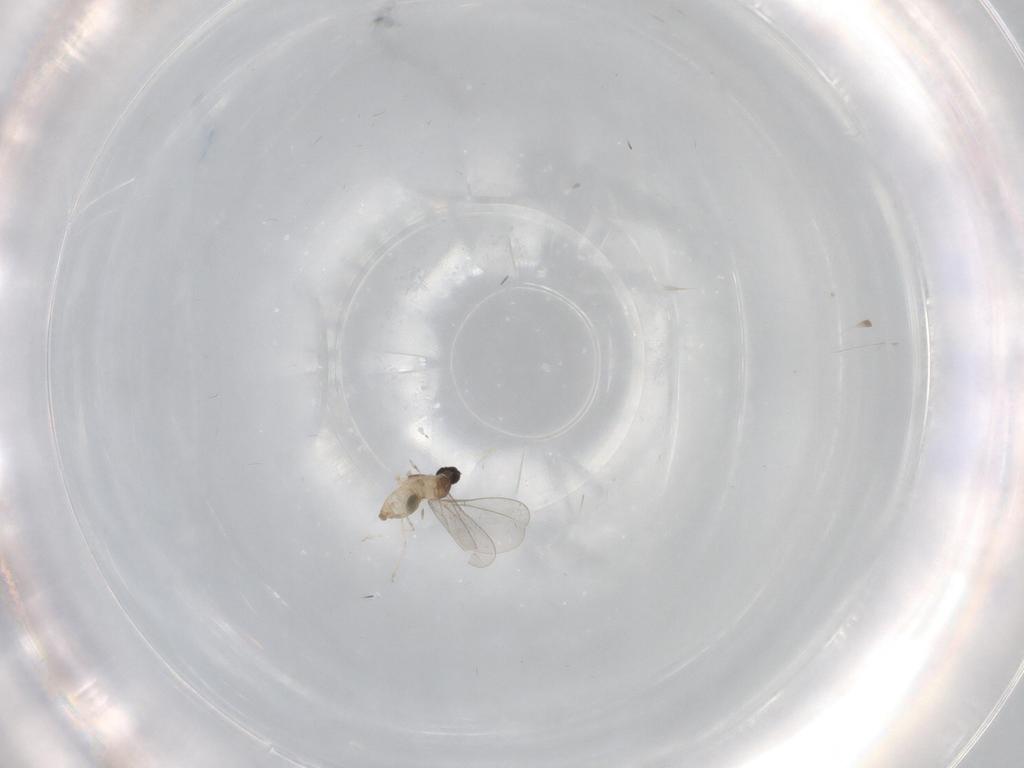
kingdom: Animalia
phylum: Arthropoda
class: Insecta
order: Diptera
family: Cecidomyiidae
